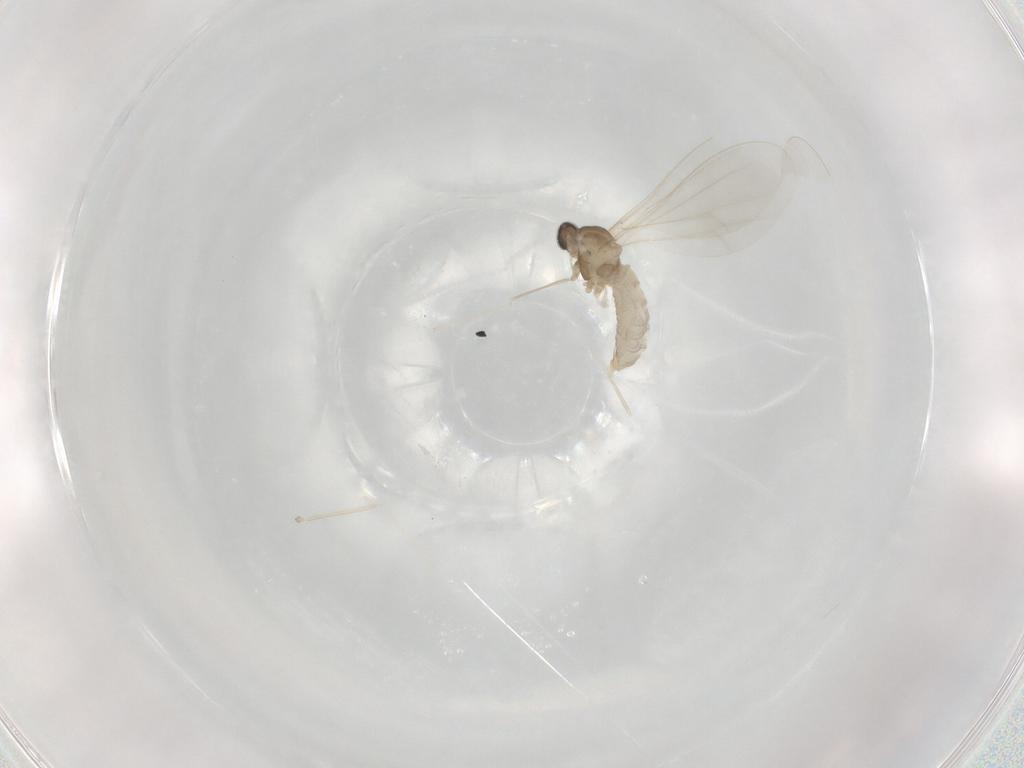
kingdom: Animalia
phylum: Arthropoda
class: Insecta
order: Diptera
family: Cecidomyiidae
